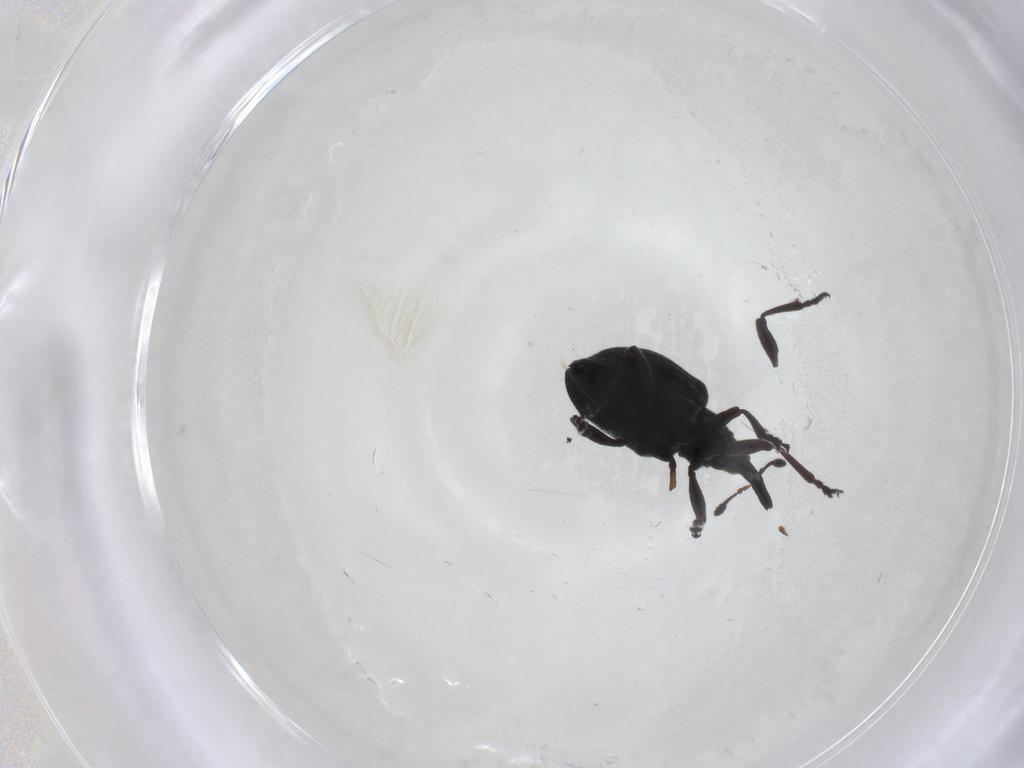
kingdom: Animalia
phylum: Arthropoda
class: Insecta
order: Coleoptera
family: Brentidae
